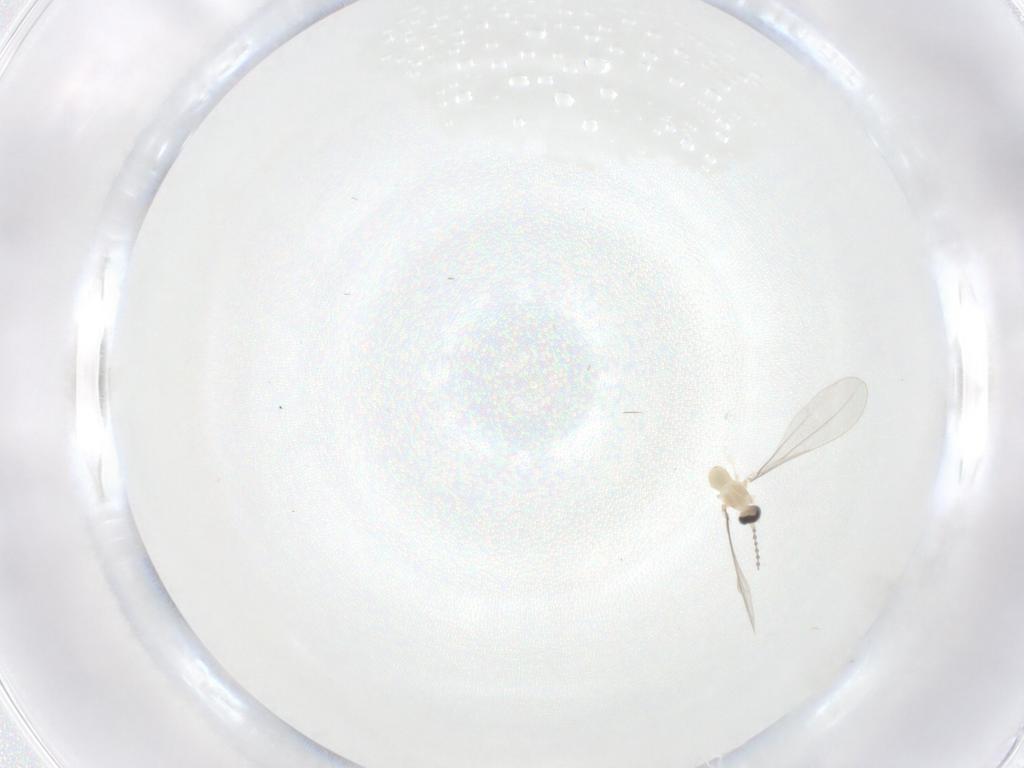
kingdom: Animalia
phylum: Arthropoda
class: Insecta
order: Diptera
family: Cecidomyiidae
